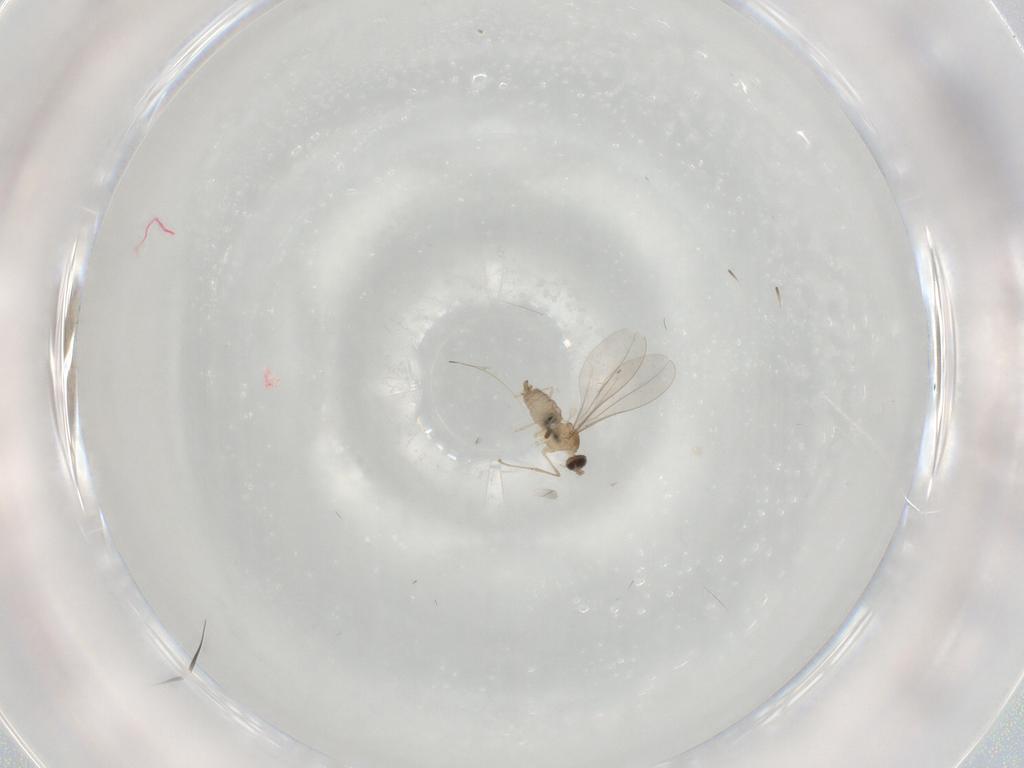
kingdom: Animalia
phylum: Arthropoda
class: Insecta
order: Diptera
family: Cecidomyiidae
